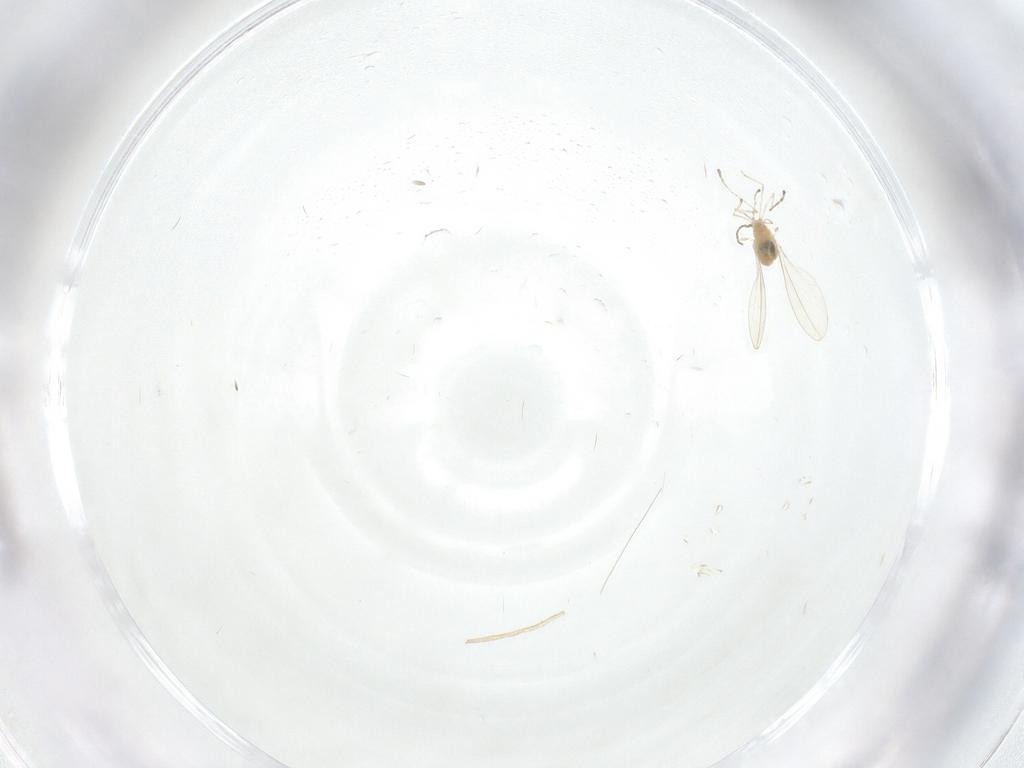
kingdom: Animalia
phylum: Arthropoda
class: Insecta
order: Diptera
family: Cecidomyiidae
